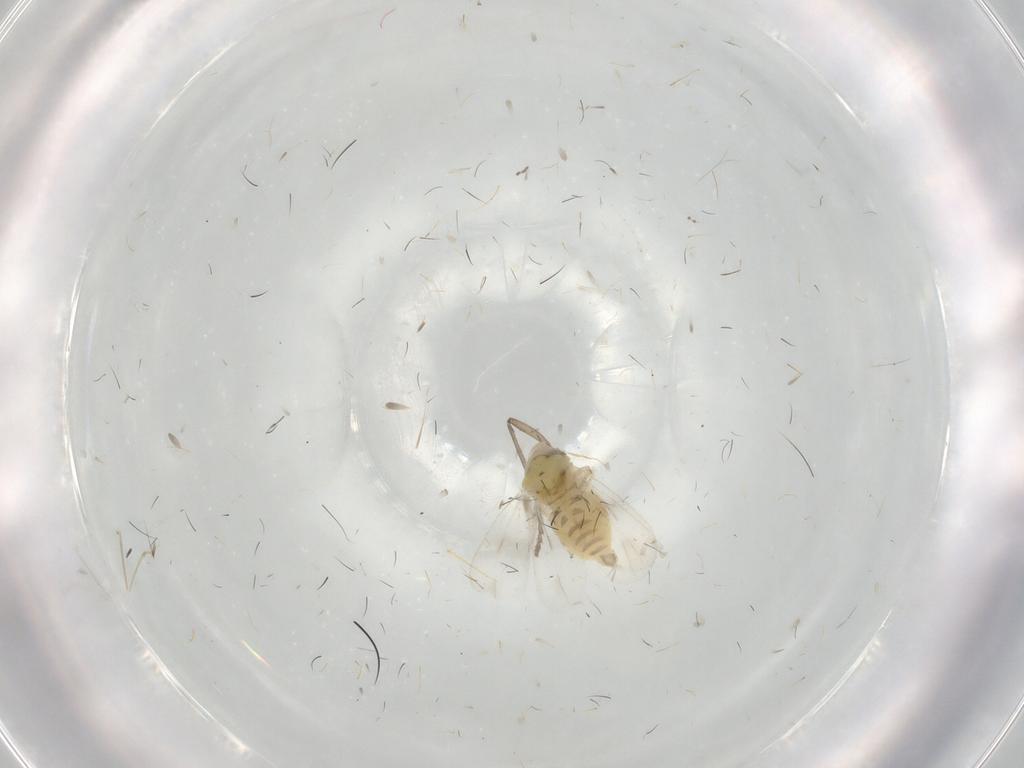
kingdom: Animalia
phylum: Arthropoda
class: Insecta
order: Hemiptera
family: Aleyrodidae
